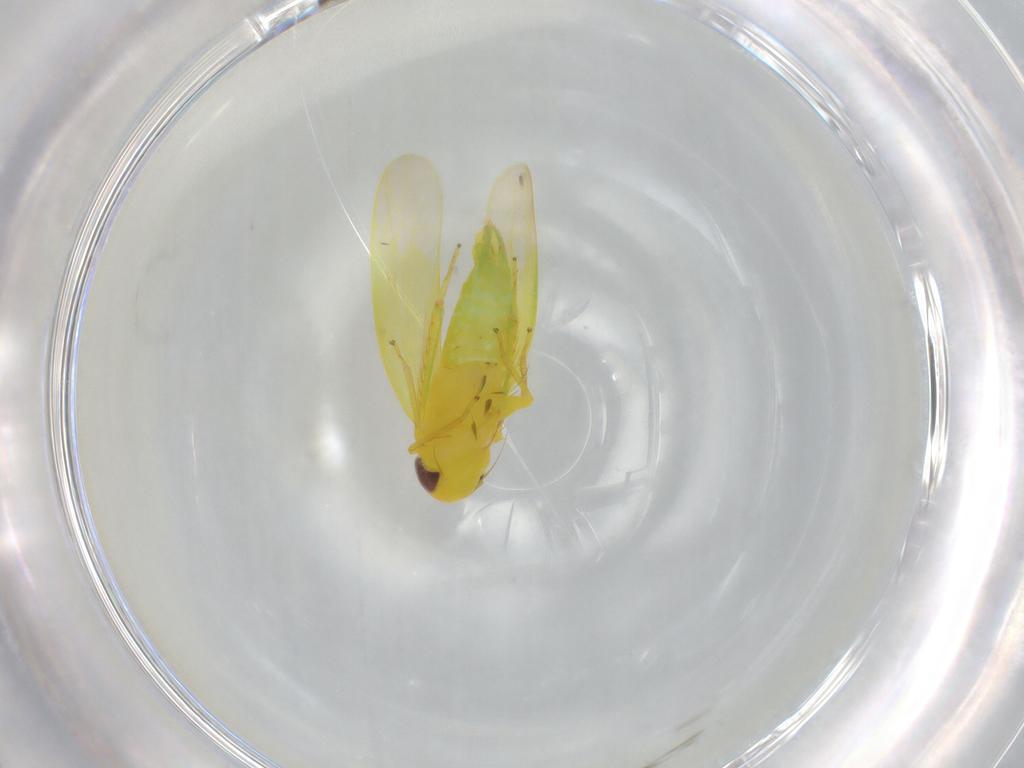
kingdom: Animalia
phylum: Arthropoda
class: Insecta
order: Hemiptera
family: Cicadellidae
